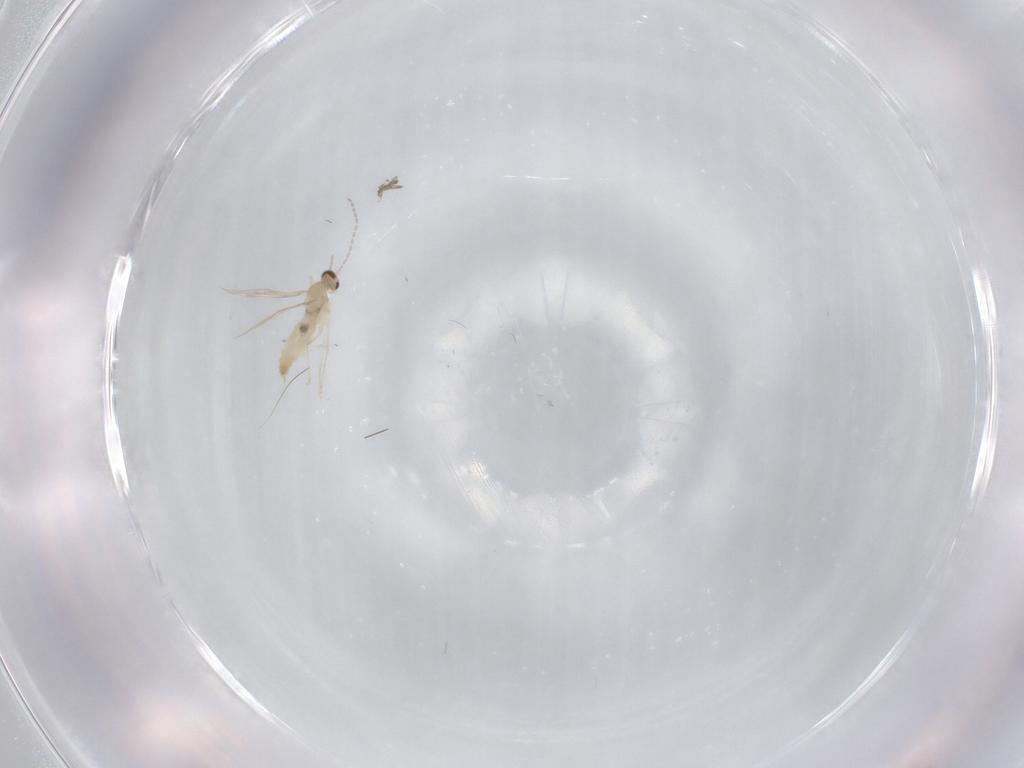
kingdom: Animalia
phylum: Arthropoda
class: Insecta
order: Diptera
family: Cecidomyiidae
